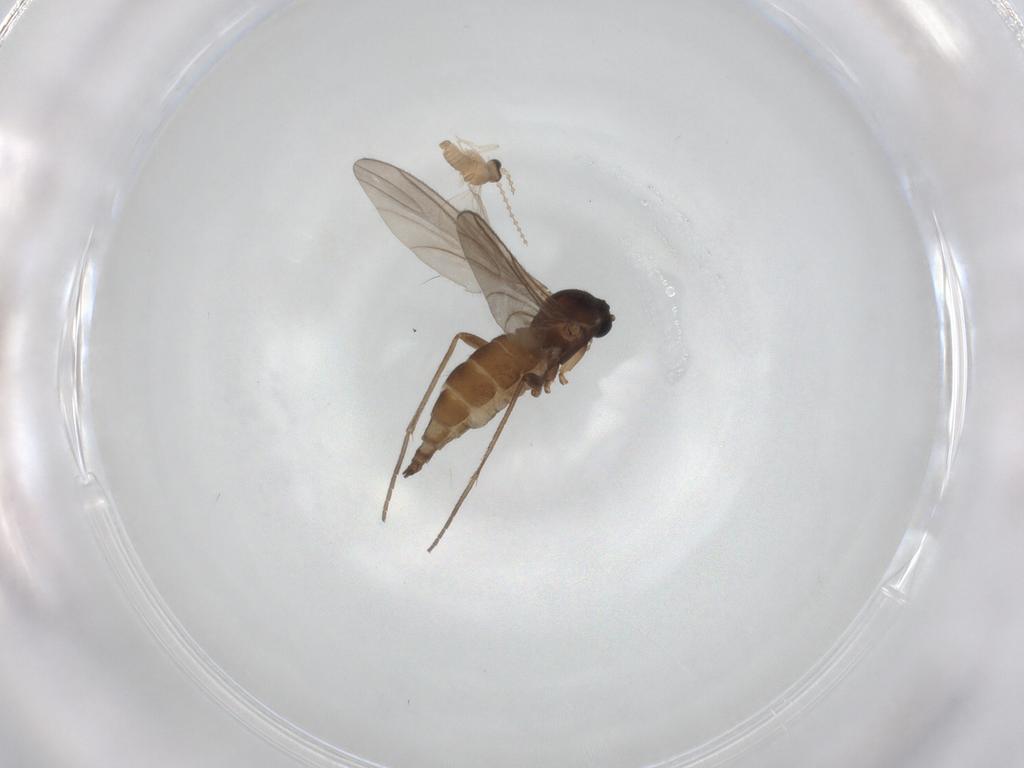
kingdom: Animalia
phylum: Arthropoda
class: Insecta
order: Diptera
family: Sciaridae
